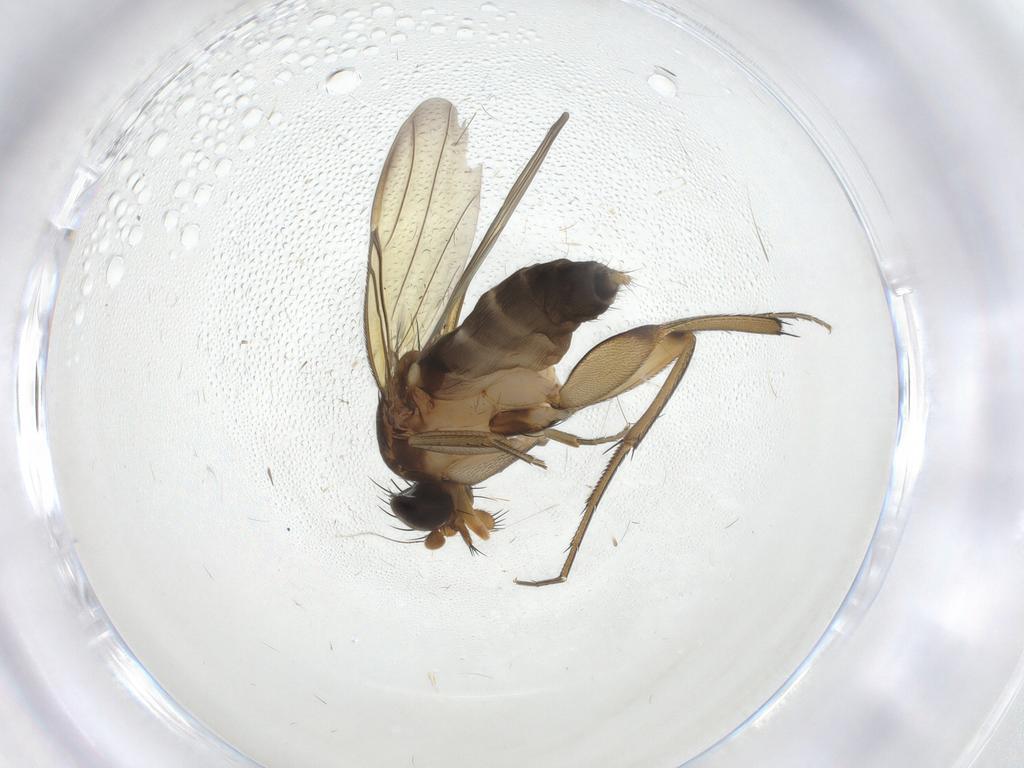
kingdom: Animalia
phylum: Arthropoda
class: Insecta
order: Diptera
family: Phoridae
